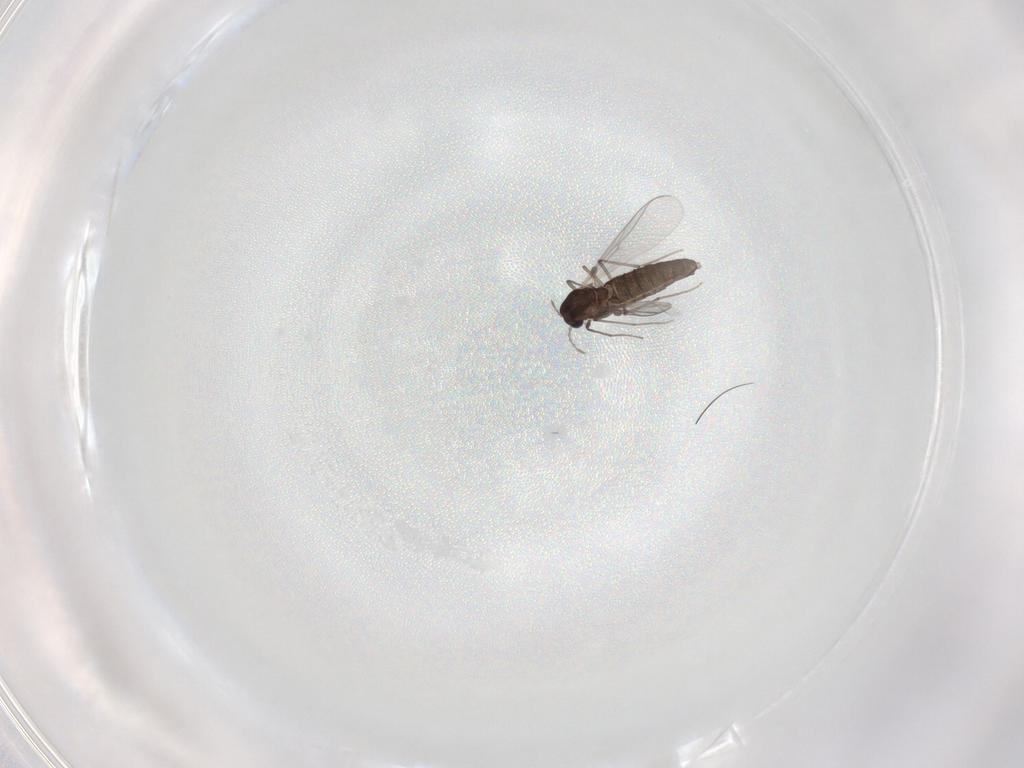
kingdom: Animalia
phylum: Arthropoda
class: Insecta
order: Diptera
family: Chironomidae
